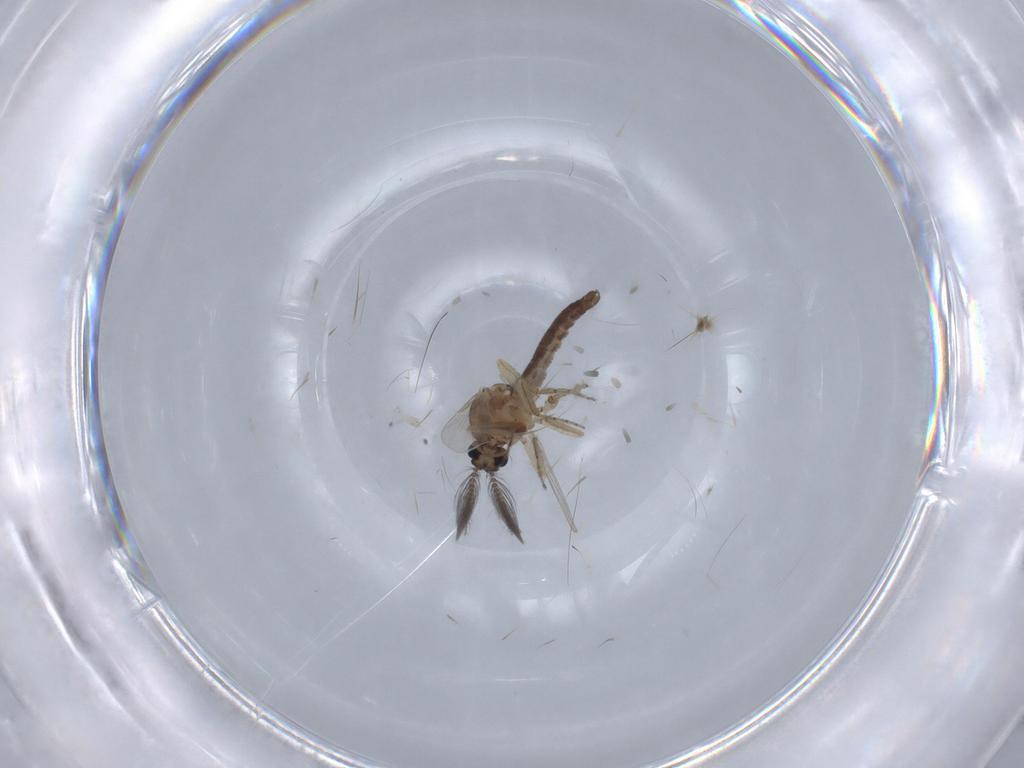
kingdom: Animalia
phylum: Arthropoda
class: Insecta
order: Diptera
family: Ceratopogonidae
